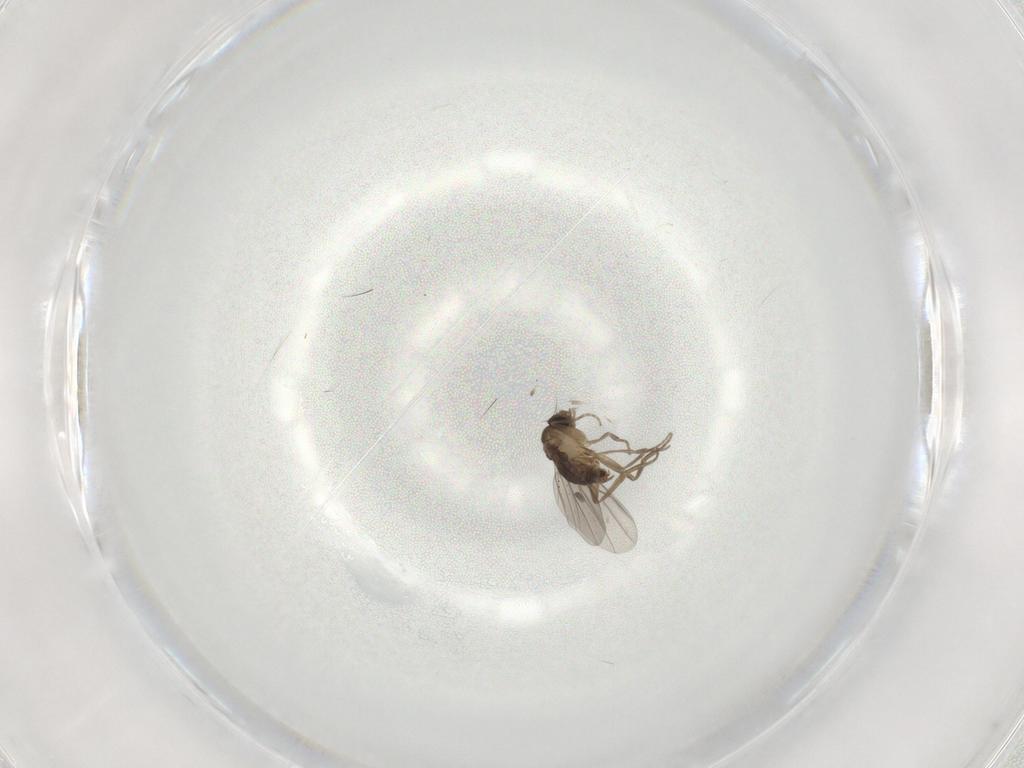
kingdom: Animalia
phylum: Arthropoda
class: Insecta
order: Diptera
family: Phoridae
